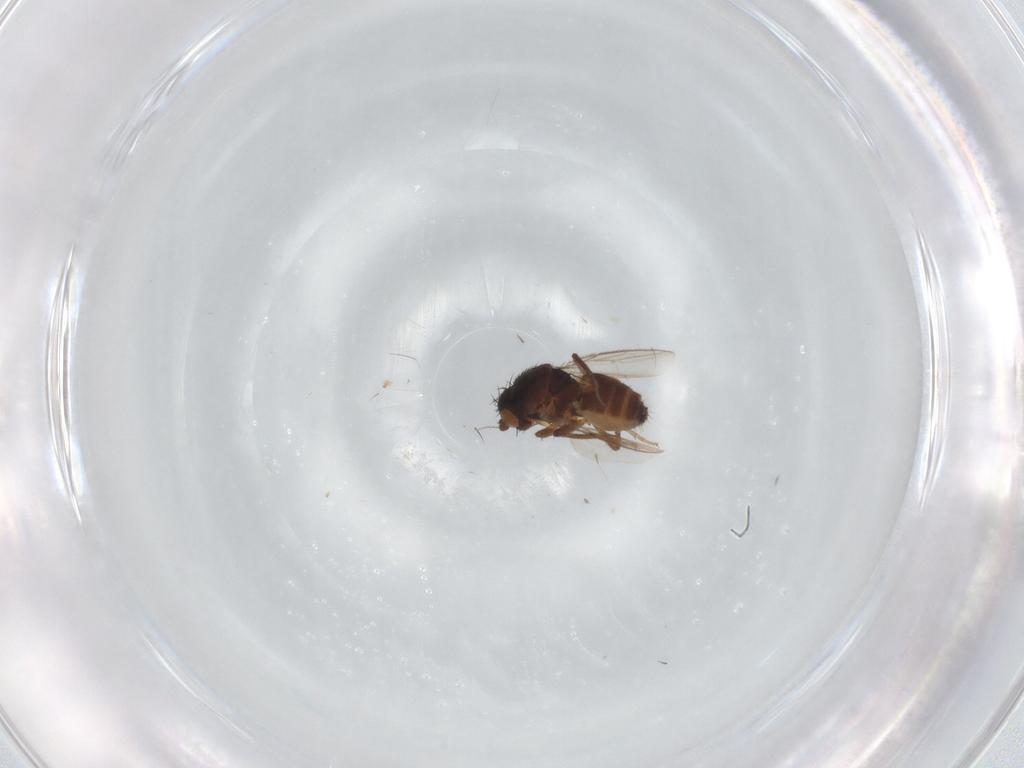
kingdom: Animalia
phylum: Arthropoda
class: Insecta
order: Diptera
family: Sphaeroceridae
